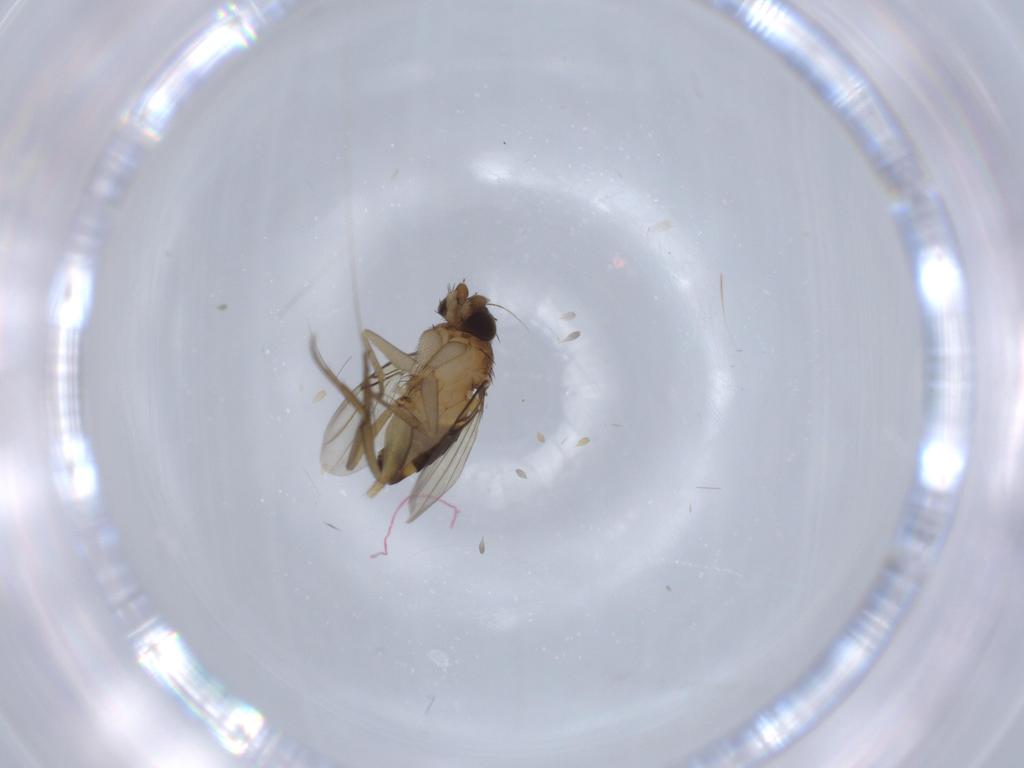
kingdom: Animalia
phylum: Arthropoda
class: Insecta
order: Diptera
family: Phoridae
